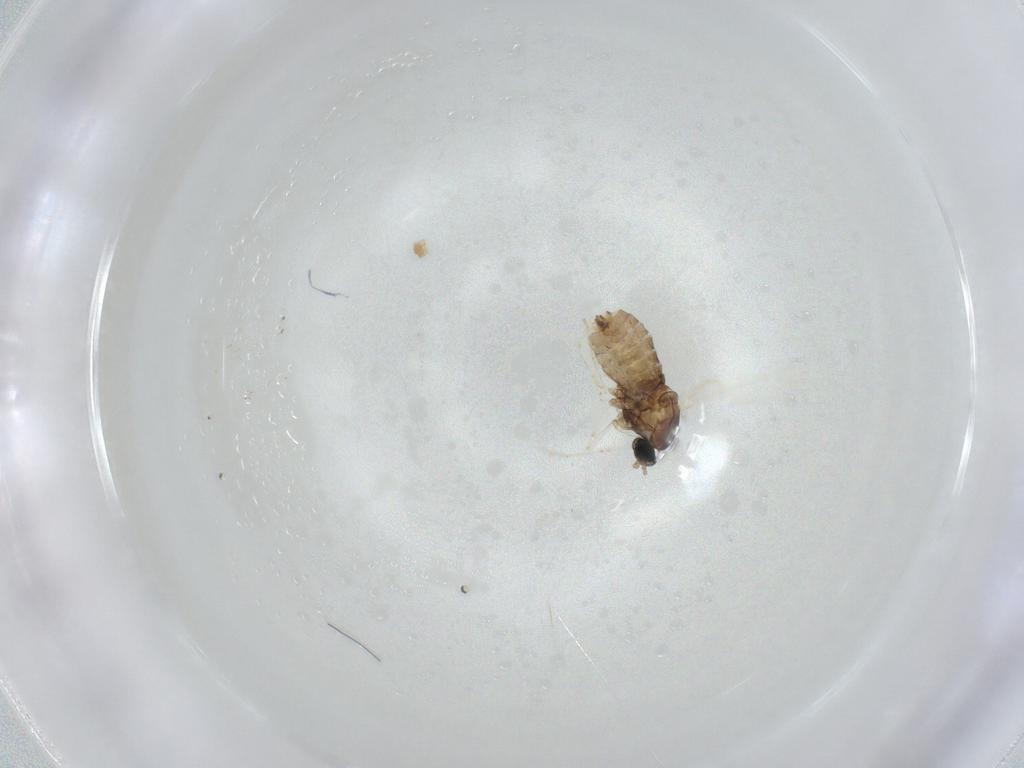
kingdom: Animalia
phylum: Arthropoda
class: Insecta
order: Diptera
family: Cecidomyiidae
